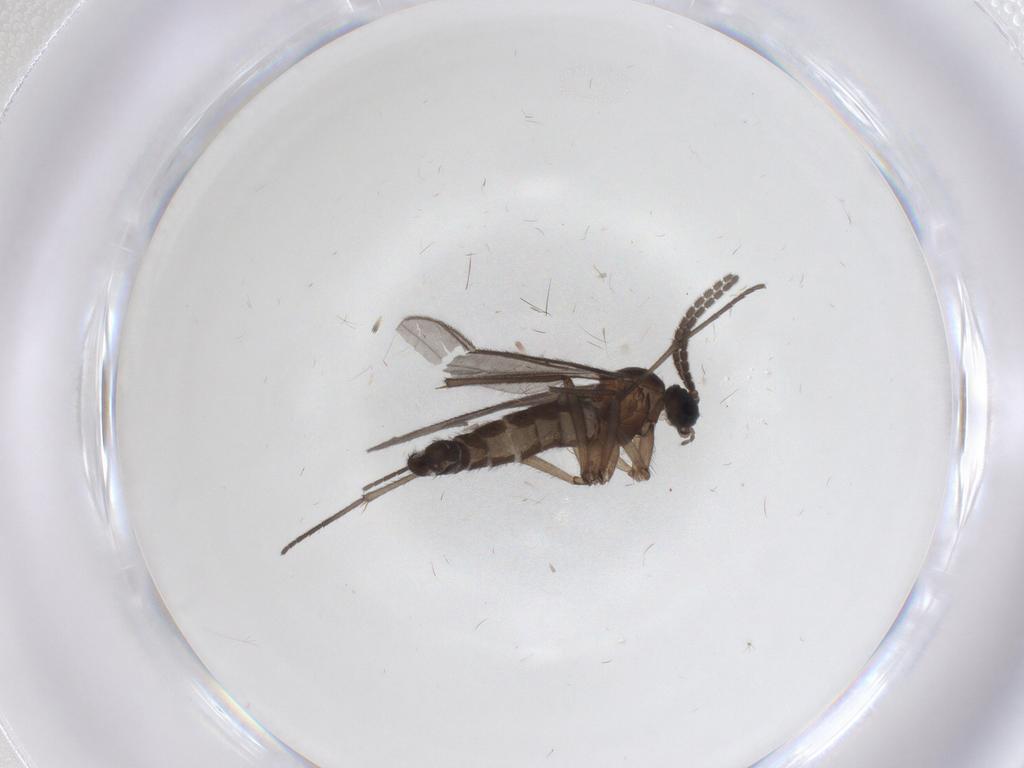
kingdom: Animalia
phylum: Arthropoda
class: Insecta
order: Diptera
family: Sciaridae
